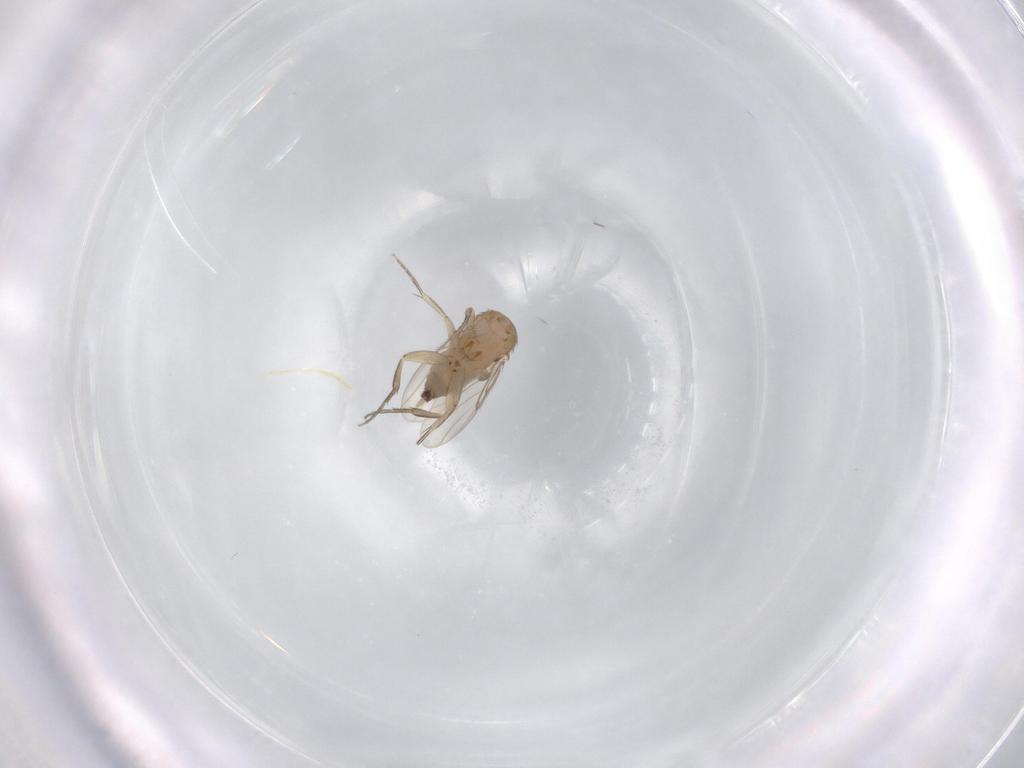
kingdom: Animalia
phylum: Arthropoda
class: Insecta
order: Diptera
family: Phoridae
